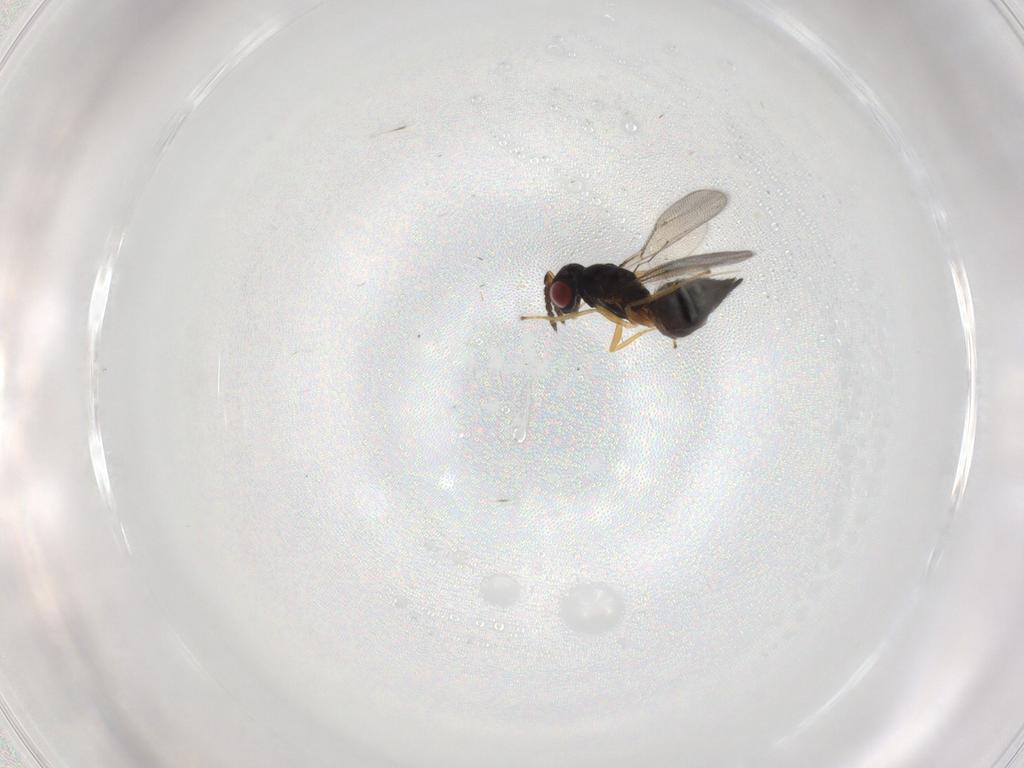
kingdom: Animalia
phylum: Arthropoda
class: Insecta
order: Hymenoptera
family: Eulophidae
